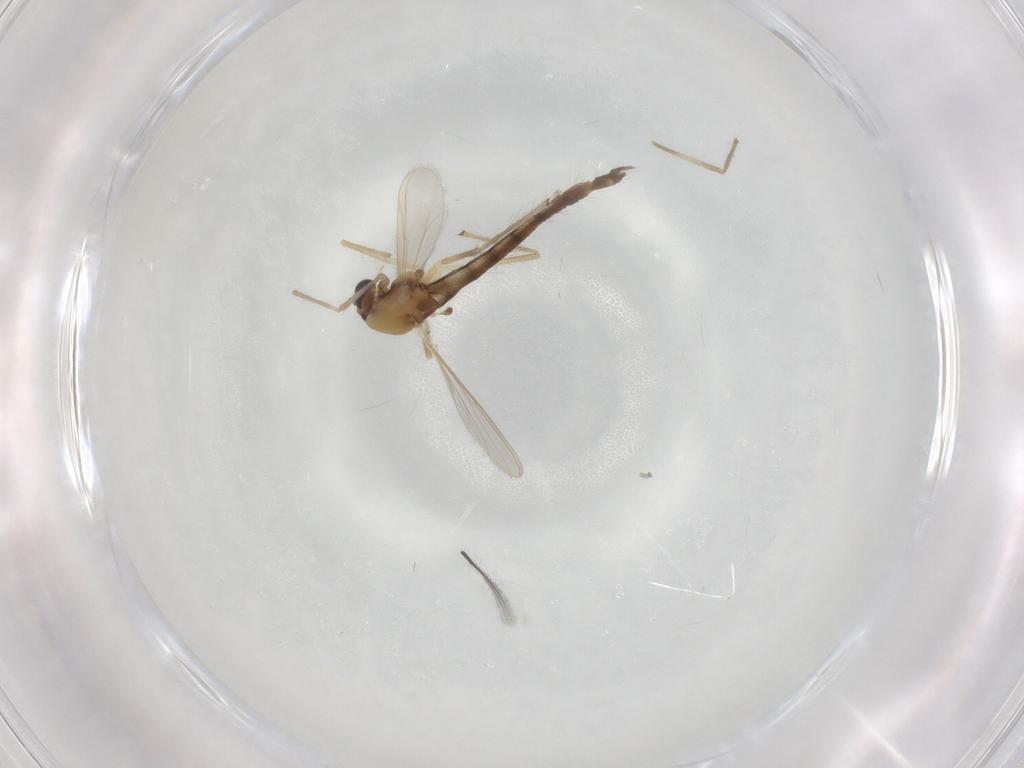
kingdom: Animalia
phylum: Arthropoda
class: Insecta
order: Diptera
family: Chironomidae
